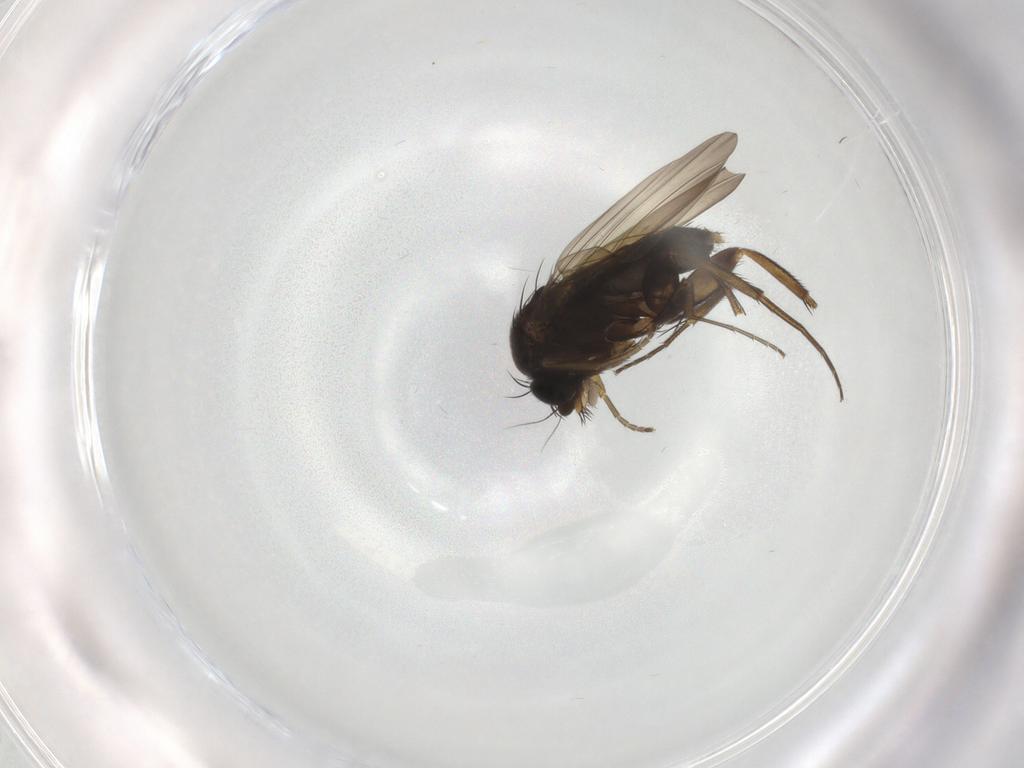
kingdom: Animalia
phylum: Arthropoda
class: Insecta
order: Diptera
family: Phoridae
